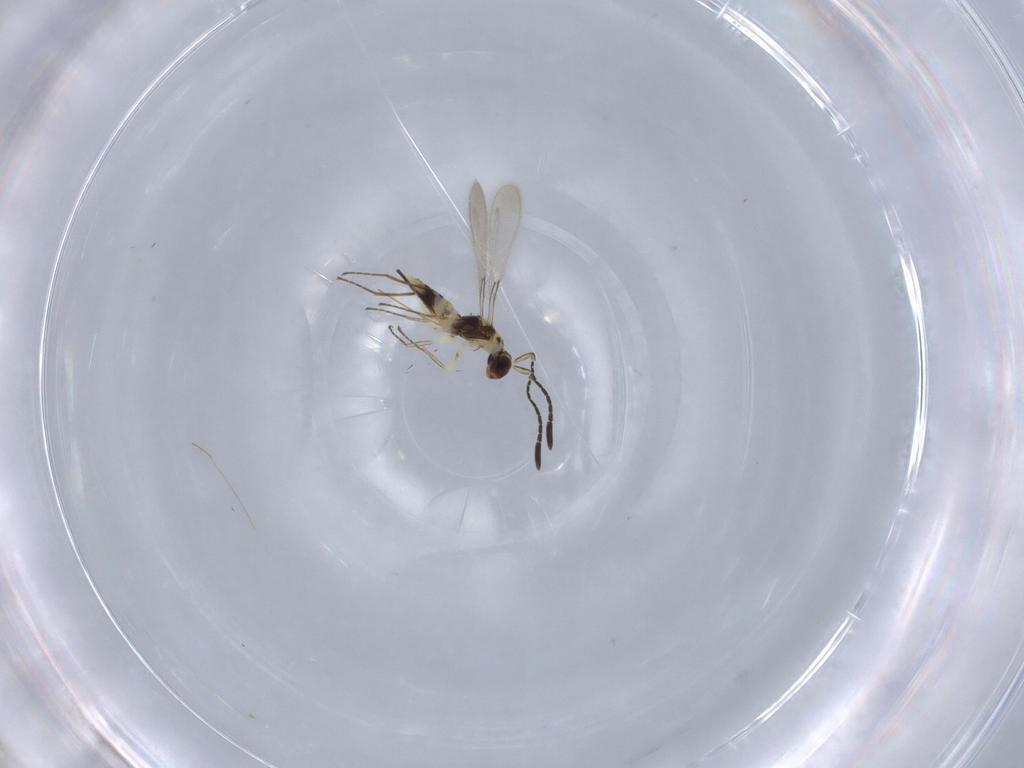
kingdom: Animalia
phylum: Arthropoda
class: Insecta
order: Hymenoptera
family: Mymaridae
